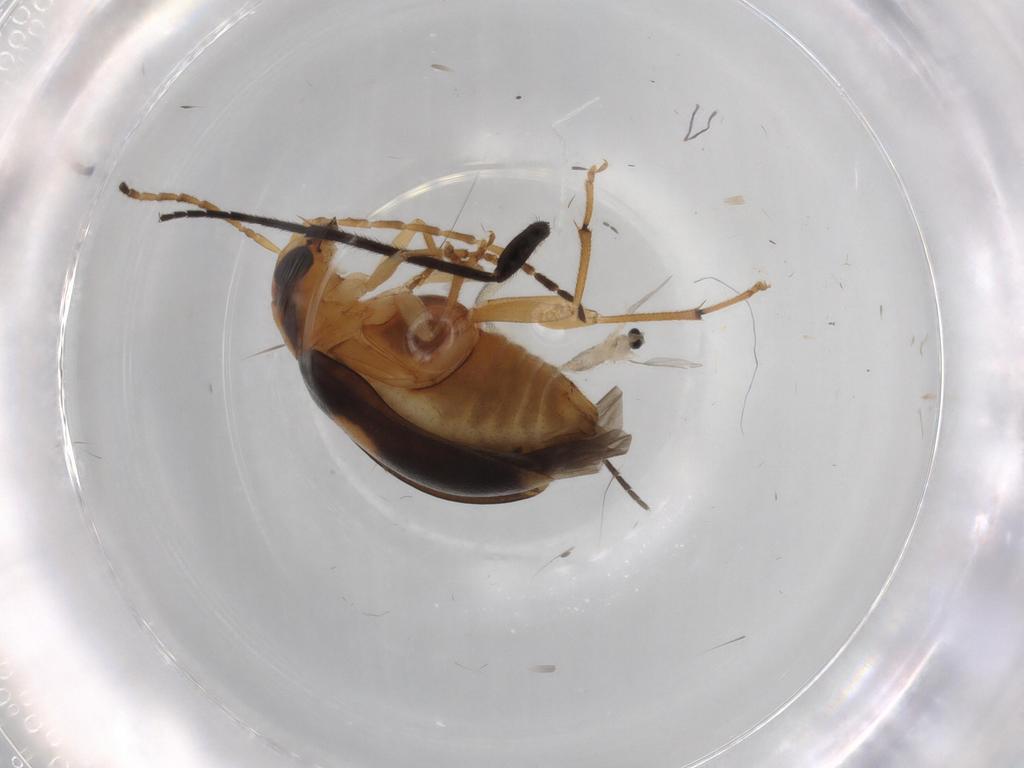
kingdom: Animalia
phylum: Arthropoda
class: Insecta
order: Coleoptera
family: Chrysomelidae
